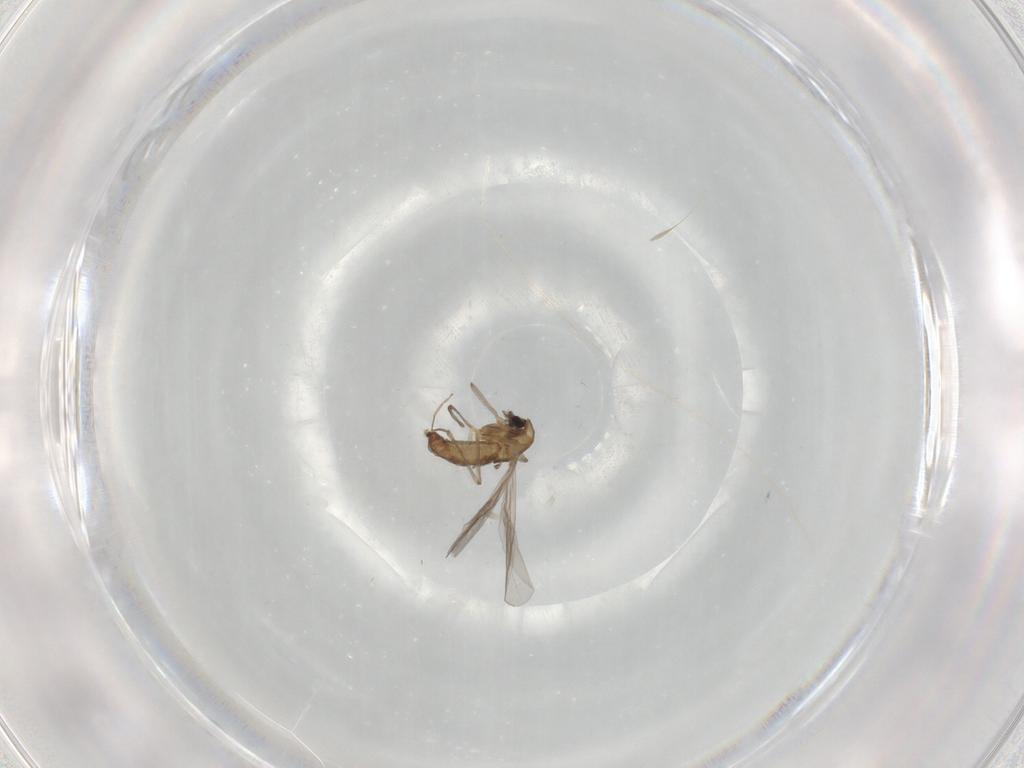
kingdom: Animalia
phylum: Arthropoda
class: Insecta
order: Diptera
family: Chironomidae
